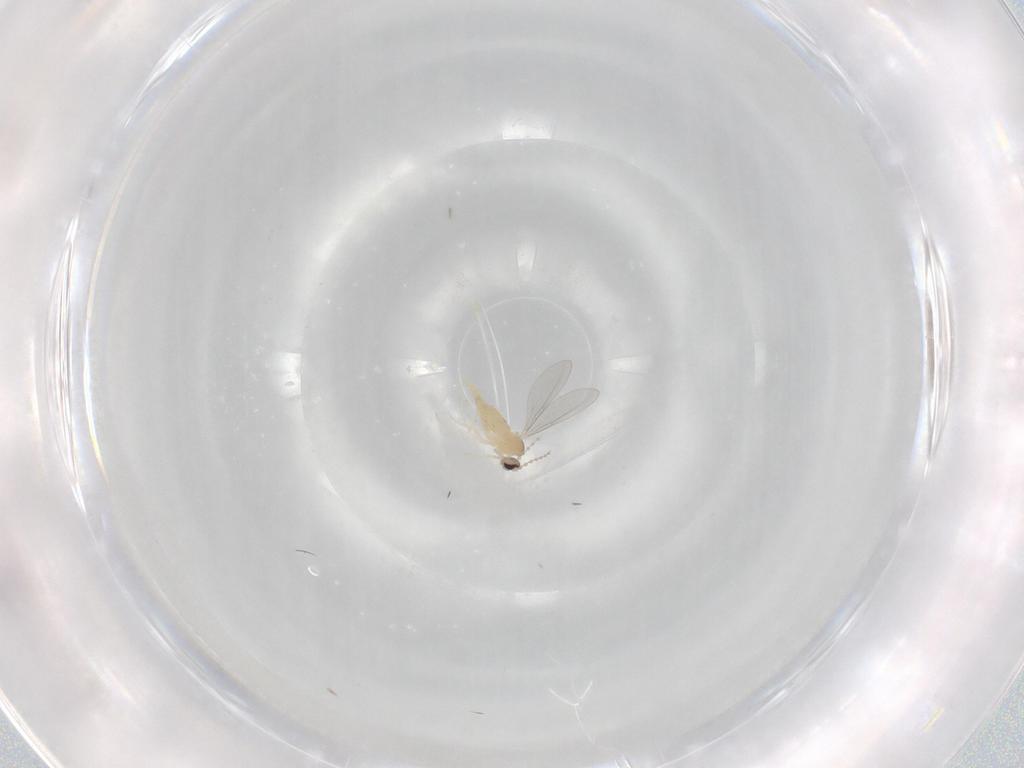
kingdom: Animalia
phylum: Arthropoda
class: Insecta
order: Diptera
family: Cecidomyiidae
